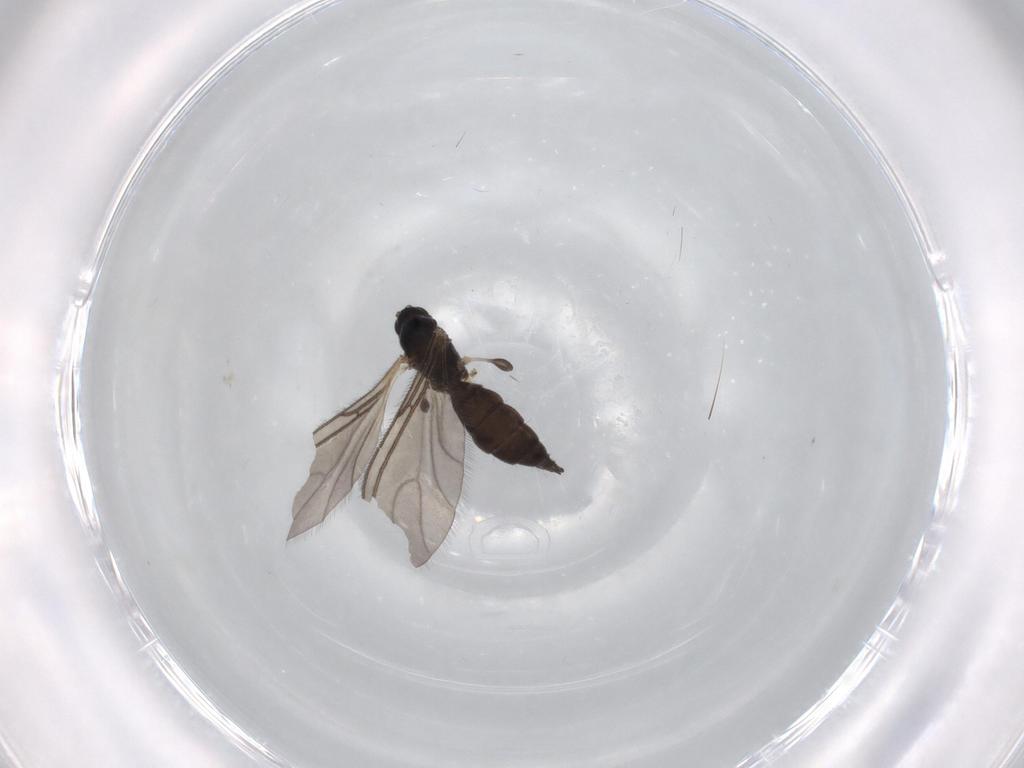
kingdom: Animalia
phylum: Arthropoda
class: Insecta
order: Diptera
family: Sciaridae
